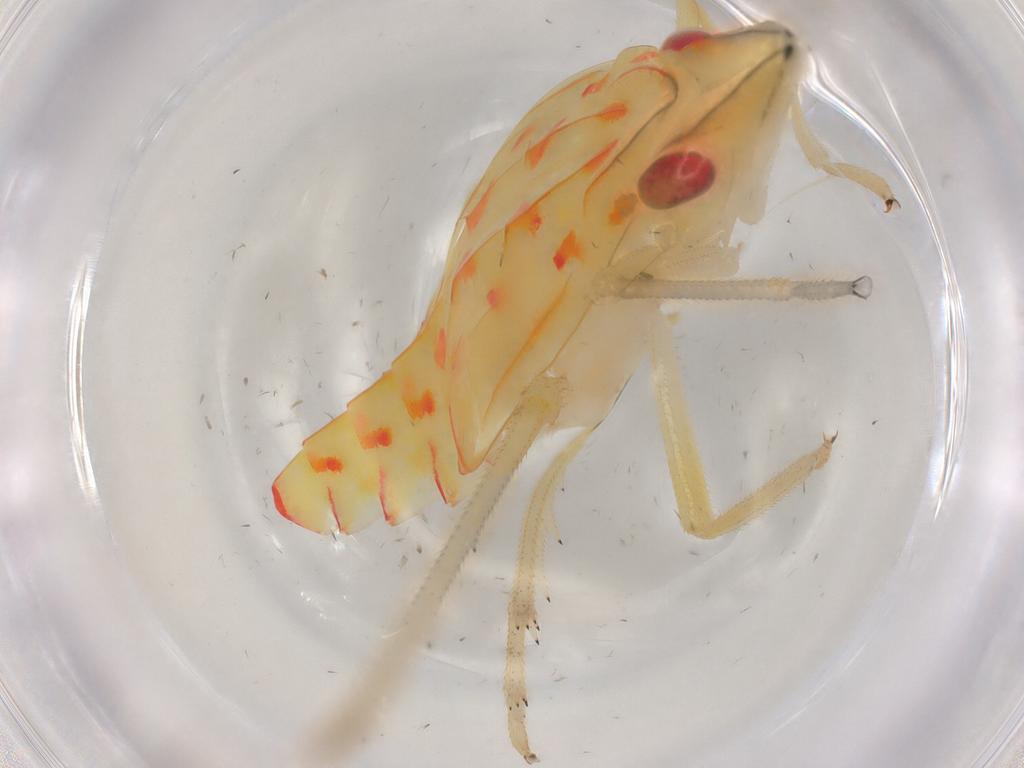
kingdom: Animalia
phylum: Arthropoda
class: Insecta
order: Hemiptera
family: Tropiduchidae
